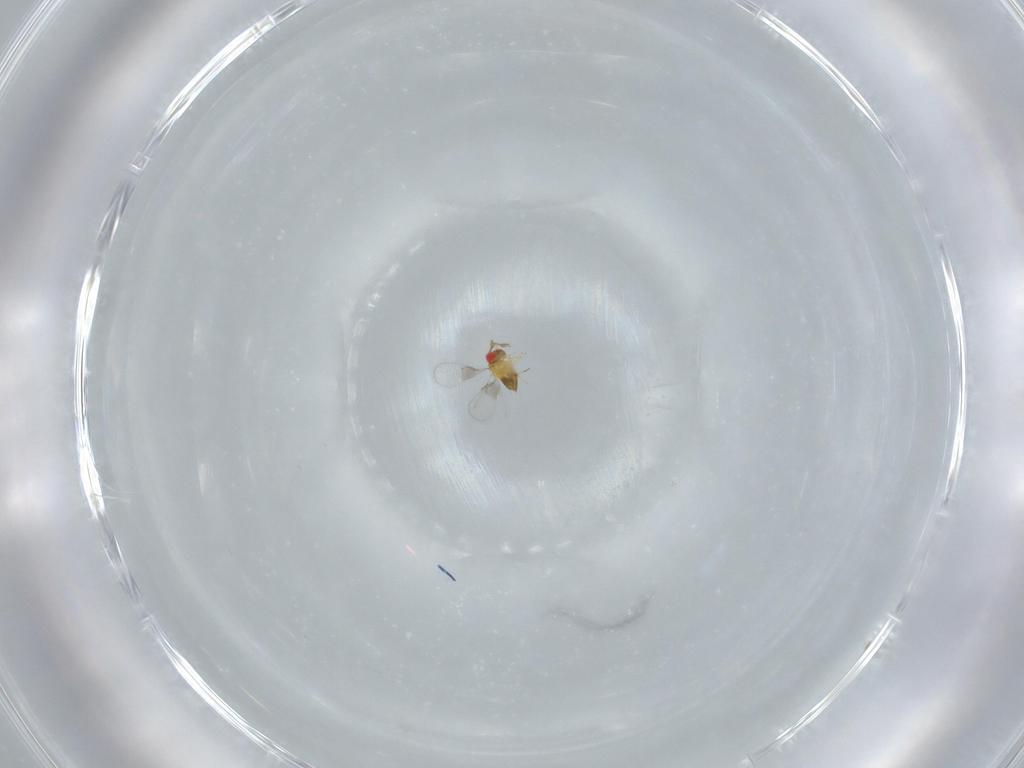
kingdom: Animalia
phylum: Arthropoda
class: Insecta
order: Hymenoptera
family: Trichogrammatidae
